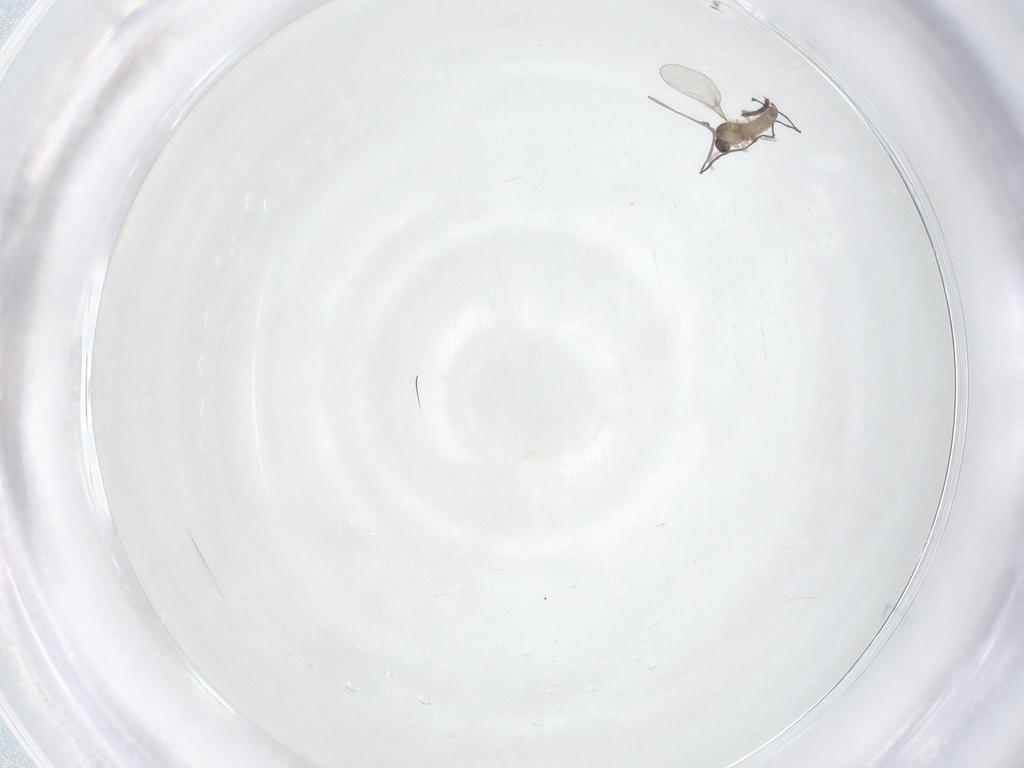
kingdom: Animalia
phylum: Arthropoda
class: Insecta
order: Diptera
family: Cecidomyiidae
